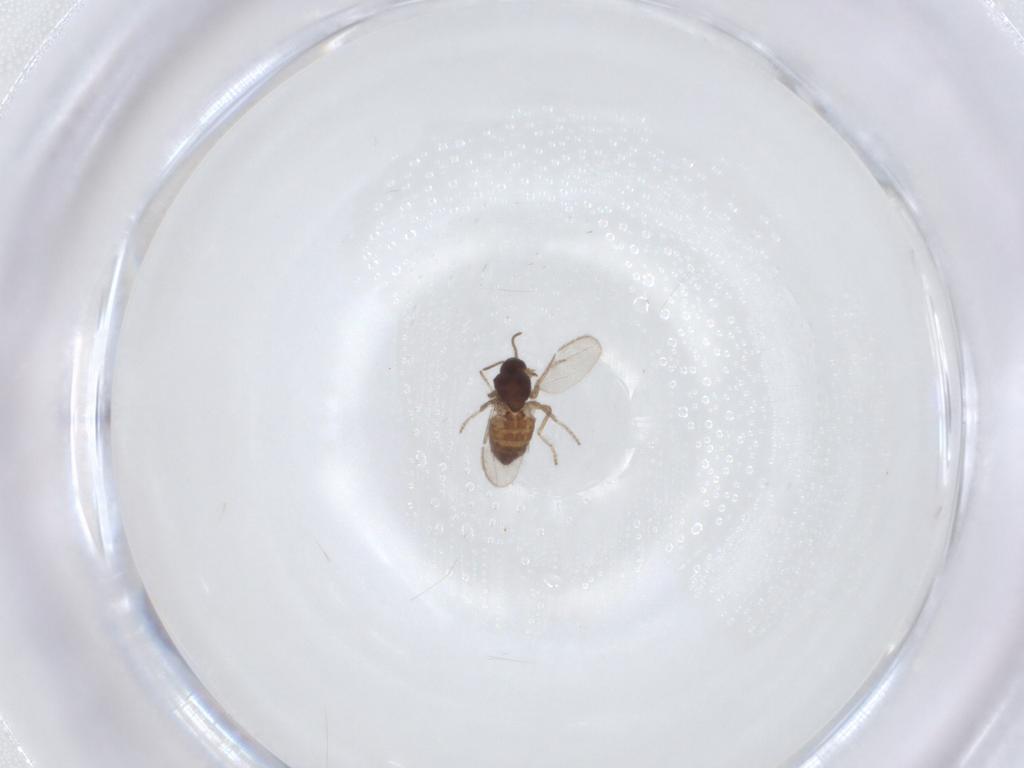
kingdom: Animalia
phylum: Arthropoda
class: Insecta
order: Diptera
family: Ceratopogonidae
